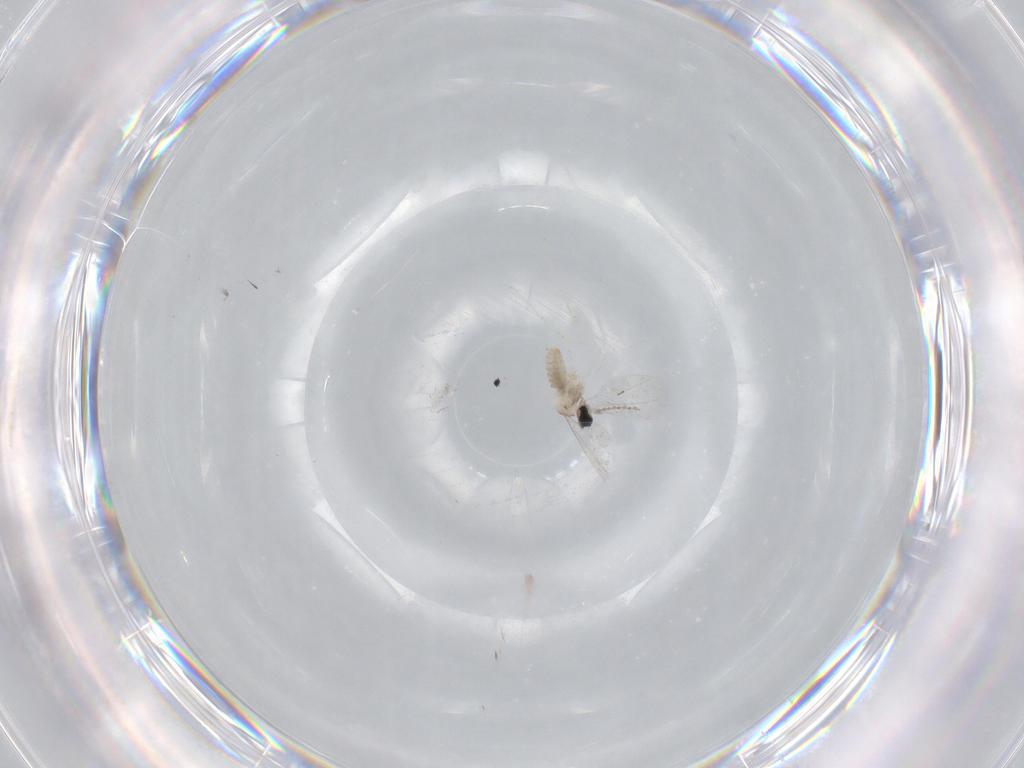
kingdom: Animalia
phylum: Arthropoda
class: Insecta
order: Diptera
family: Cecidomyiidae
